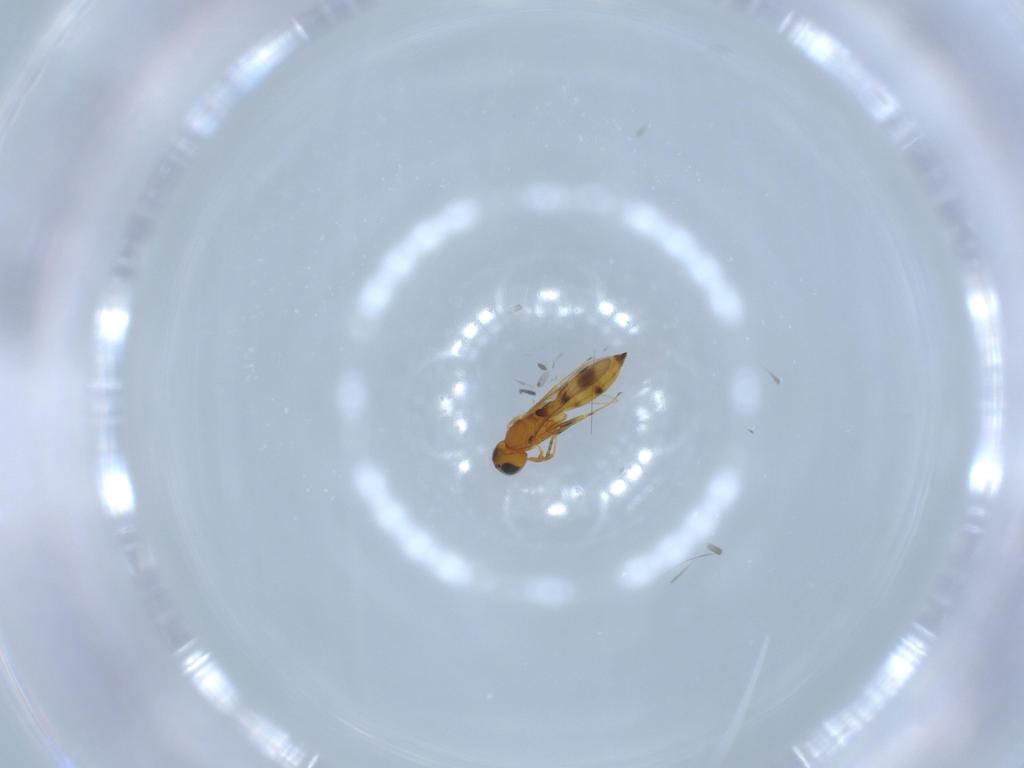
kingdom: Animalia
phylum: Arthropoda
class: Insecta
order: Hymenoptera
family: Scelionidae
